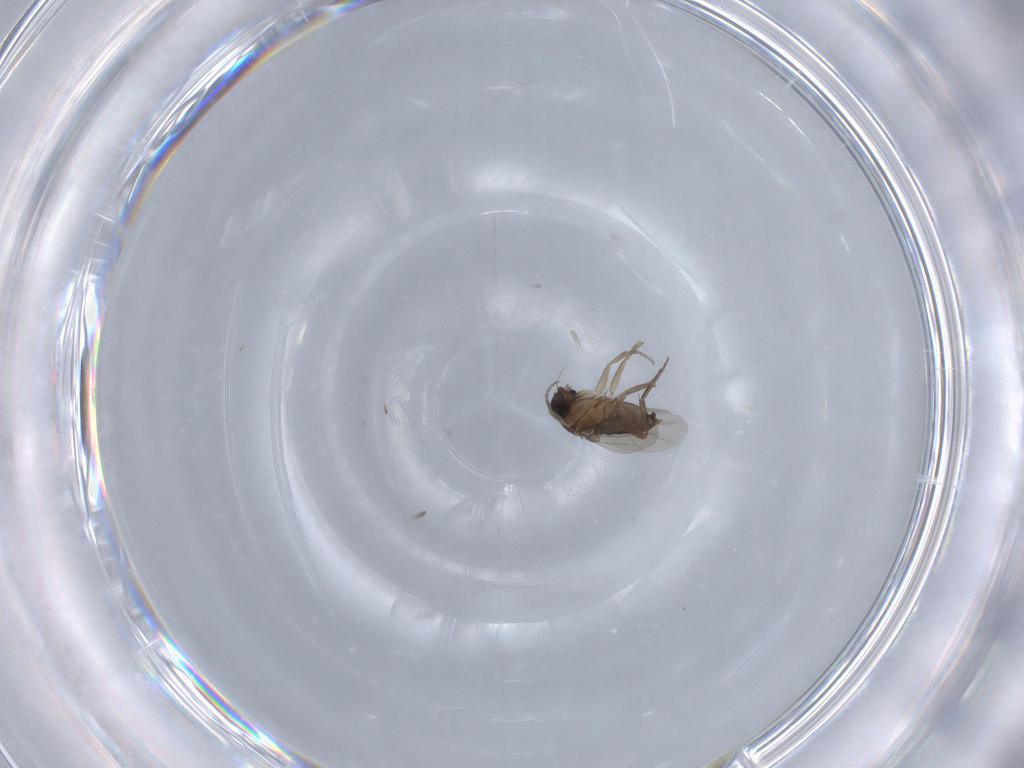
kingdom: Animalia
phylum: Arthropoda
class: Insecta
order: Diptera
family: Phoridae
